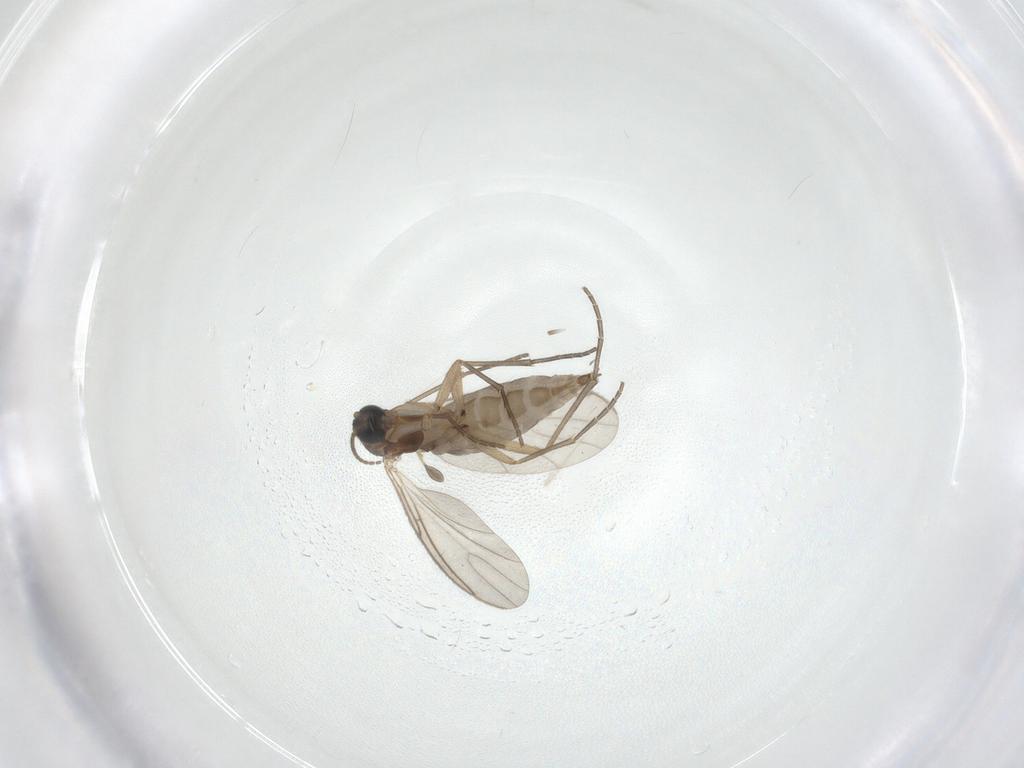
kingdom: Animalia
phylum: Arthropoda
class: Insecta
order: Diptera
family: Sciaridae
